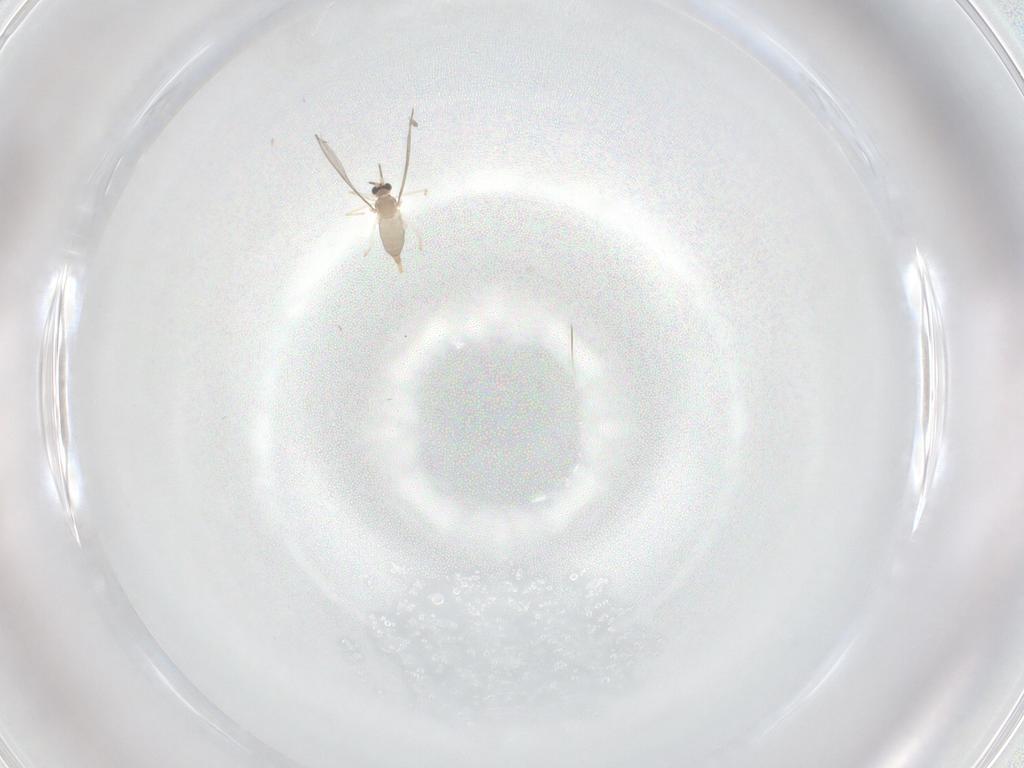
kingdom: Animalia
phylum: Arthropoda
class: Insecta
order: Diptera
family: Psychodidae
